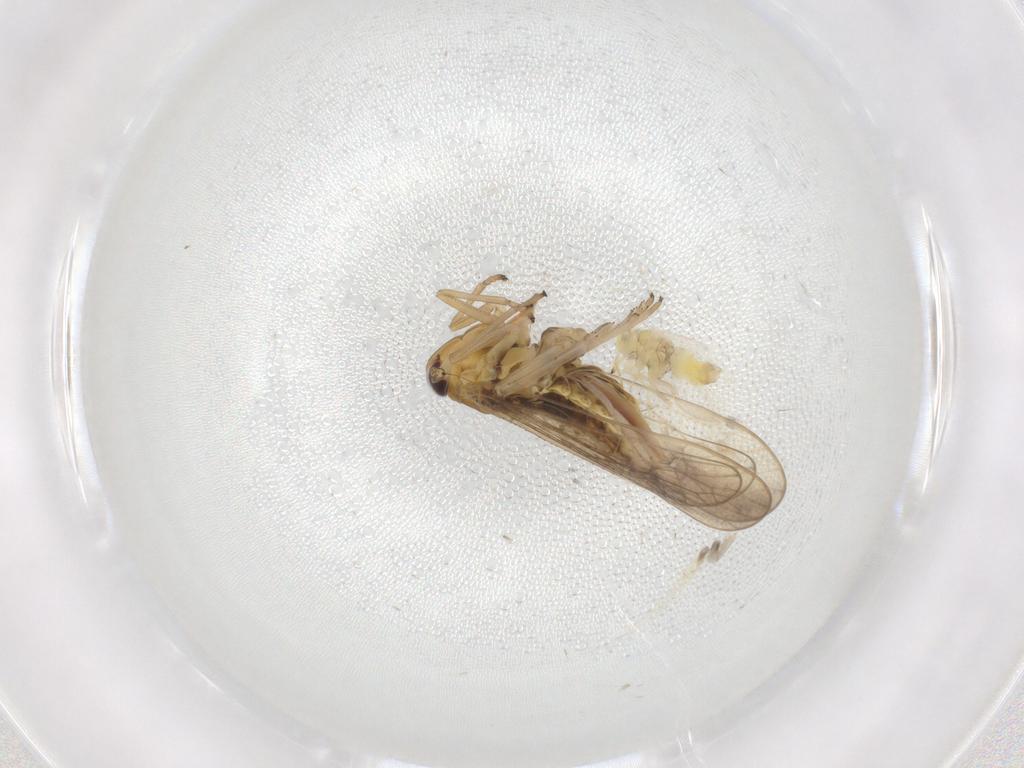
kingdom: Animalia
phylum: Arthropoda
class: Insecta
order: Hemiptera
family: Aleyrodidae
